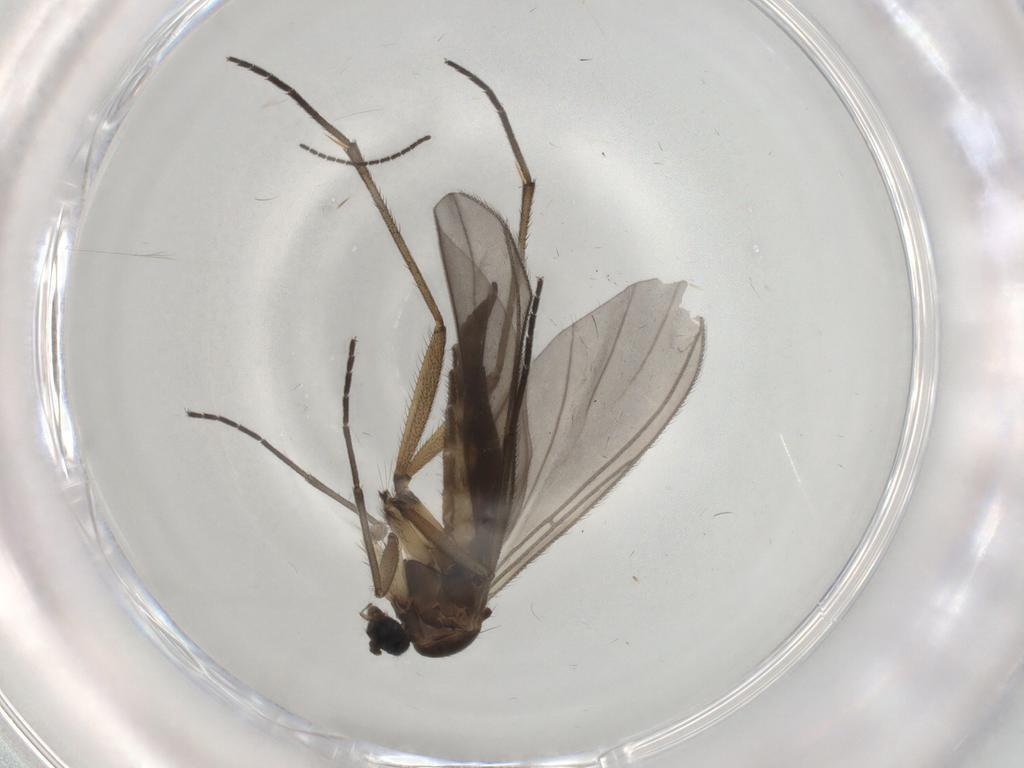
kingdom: Animalia
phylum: Arthropoda
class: Insecta
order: Diptera
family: Sciaridae
